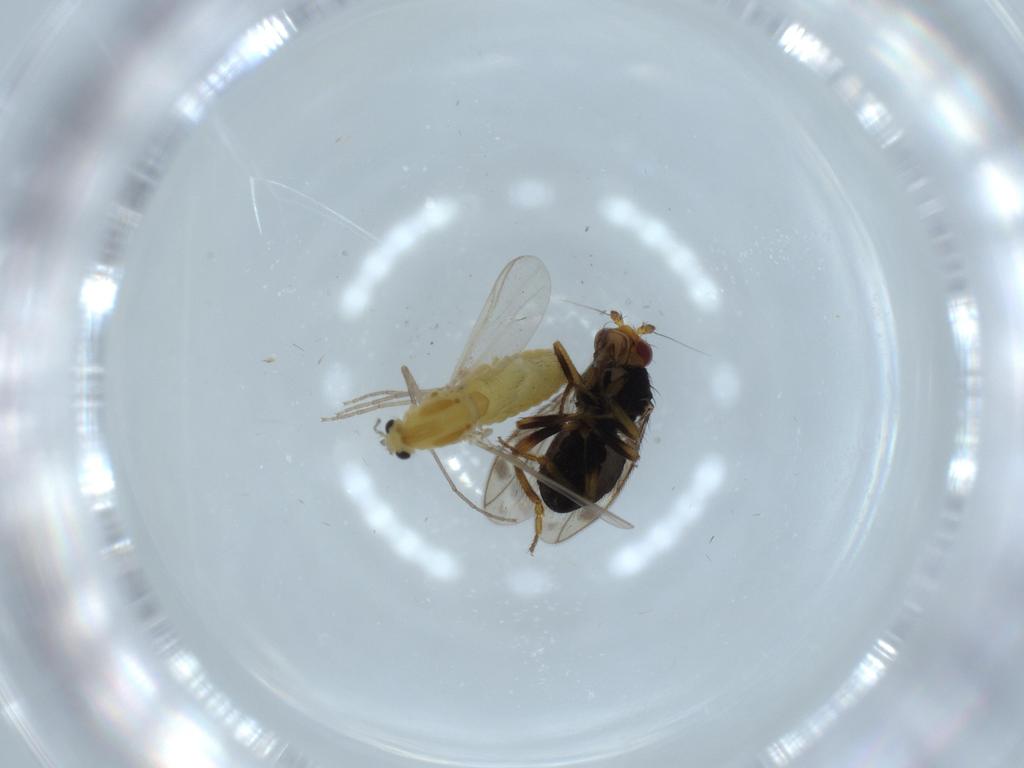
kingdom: Animalia
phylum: Arthropoda
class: Insecta
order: Diptera
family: Sphaeroceridae
